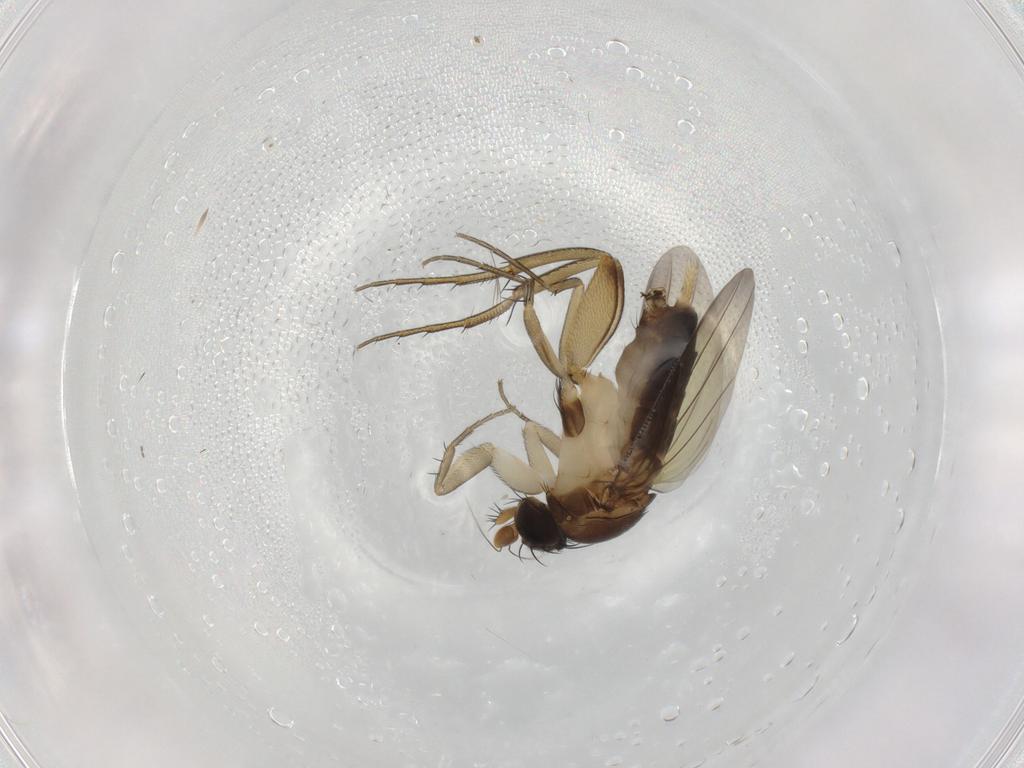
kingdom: Animalia
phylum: Arthropoda
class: Insecta
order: Diptera
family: Phoridae
